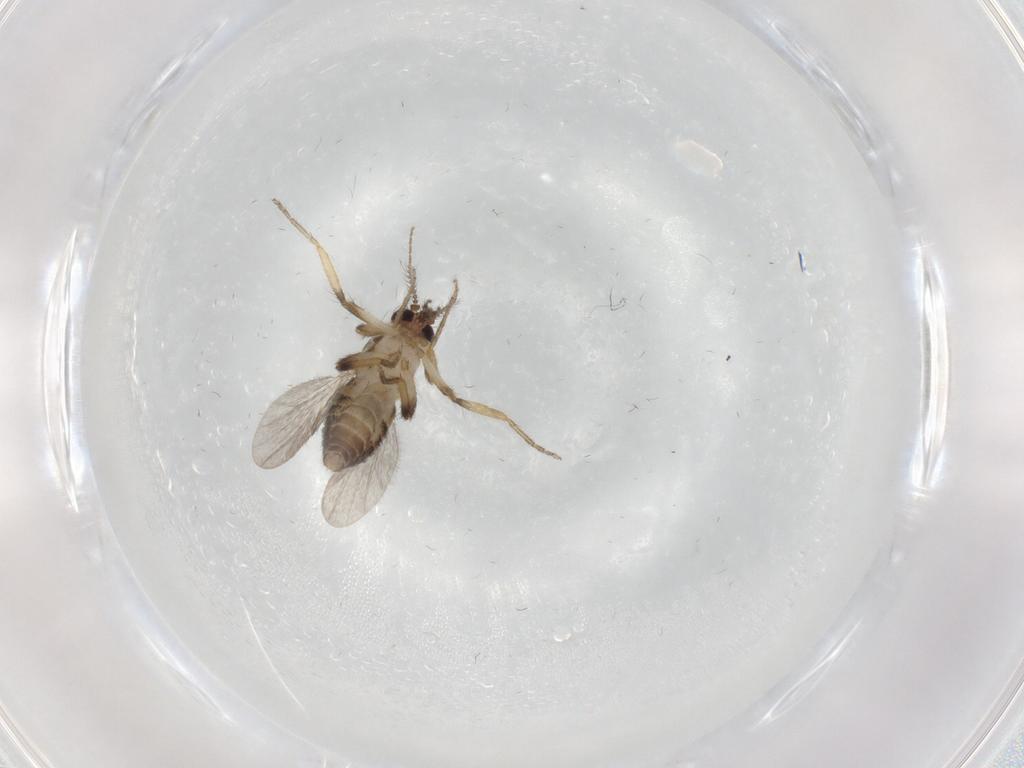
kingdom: Animalia
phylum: Arthropoda
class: Insecta
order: Diptera
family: Ceratopogonidae
